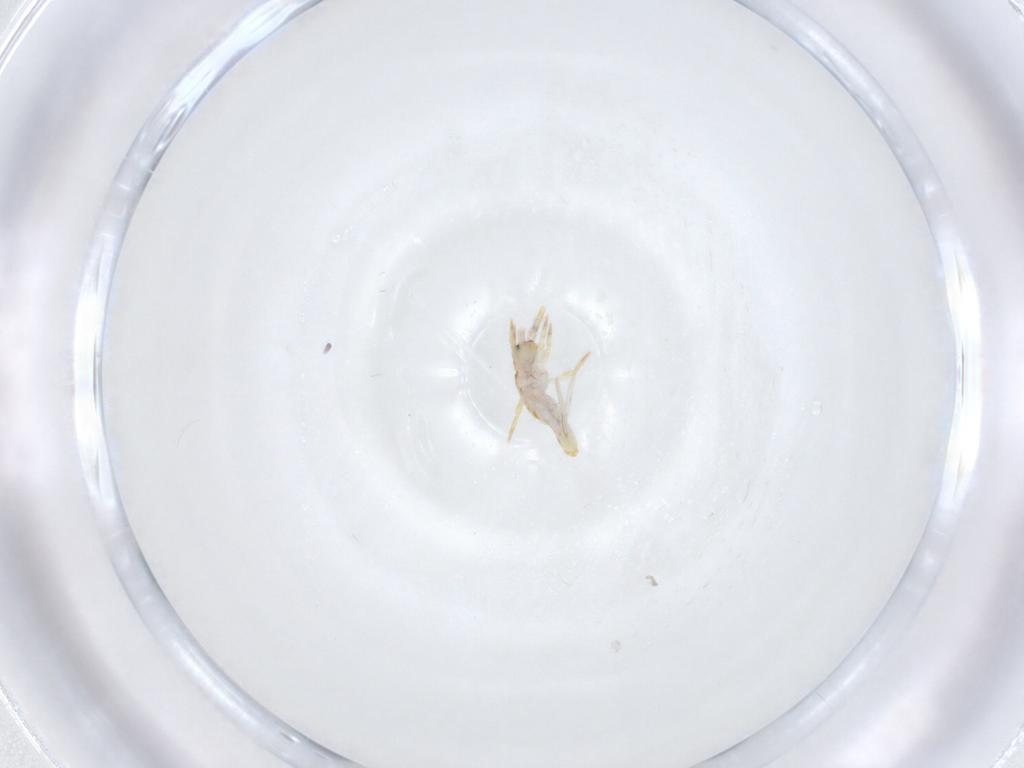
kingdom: Animalia
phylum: Arthropoda
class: Collembola
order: Entomobryomorpha
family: Entomobryidae
